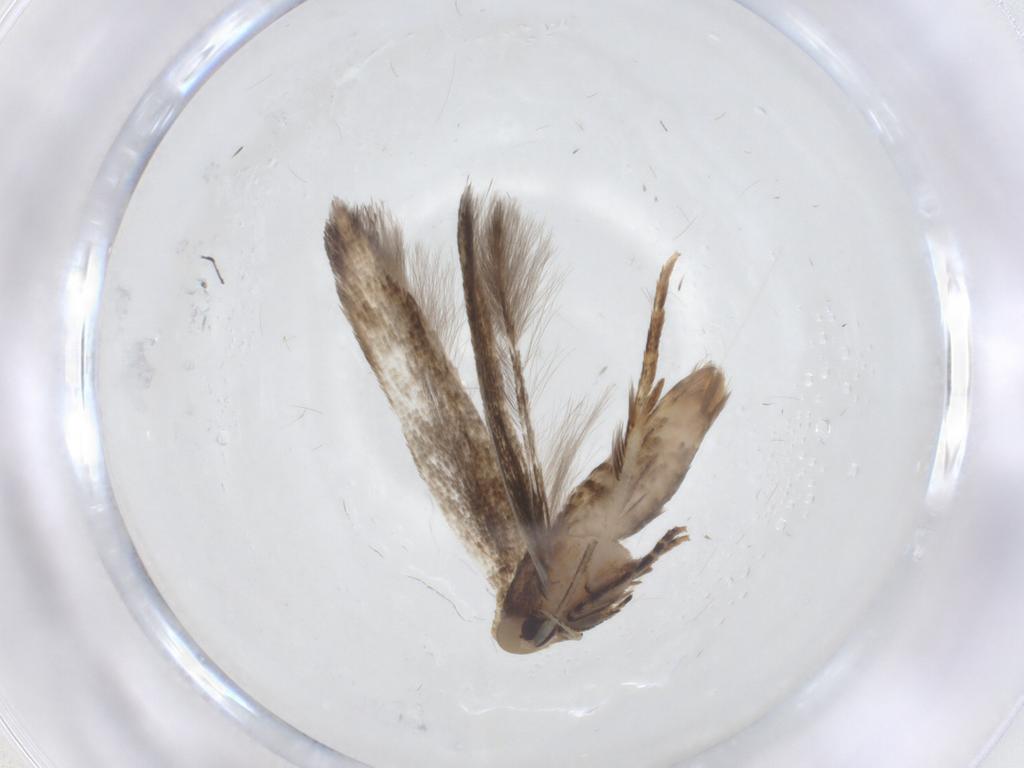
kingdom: Animalia
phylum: Arthropoda
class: Insecta
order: Lepidoptera
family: Cosmopterigidae
